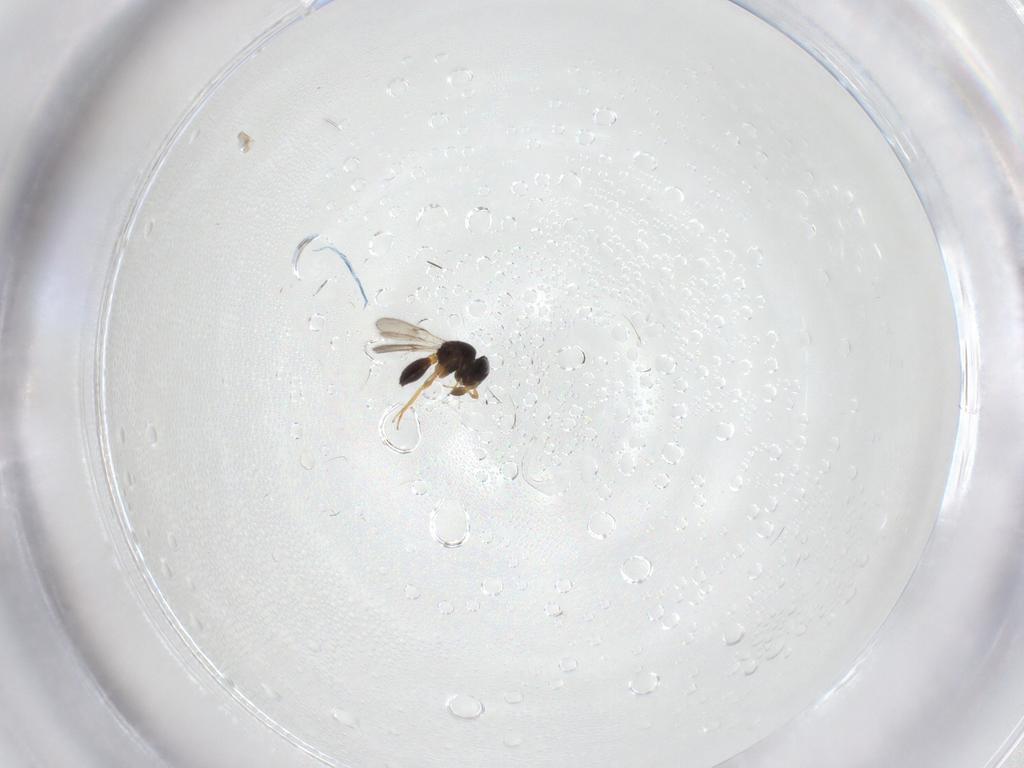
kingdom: Animalia
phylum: Arthropoda
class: Insecta
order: Hymenoptera
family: Scelionidae
